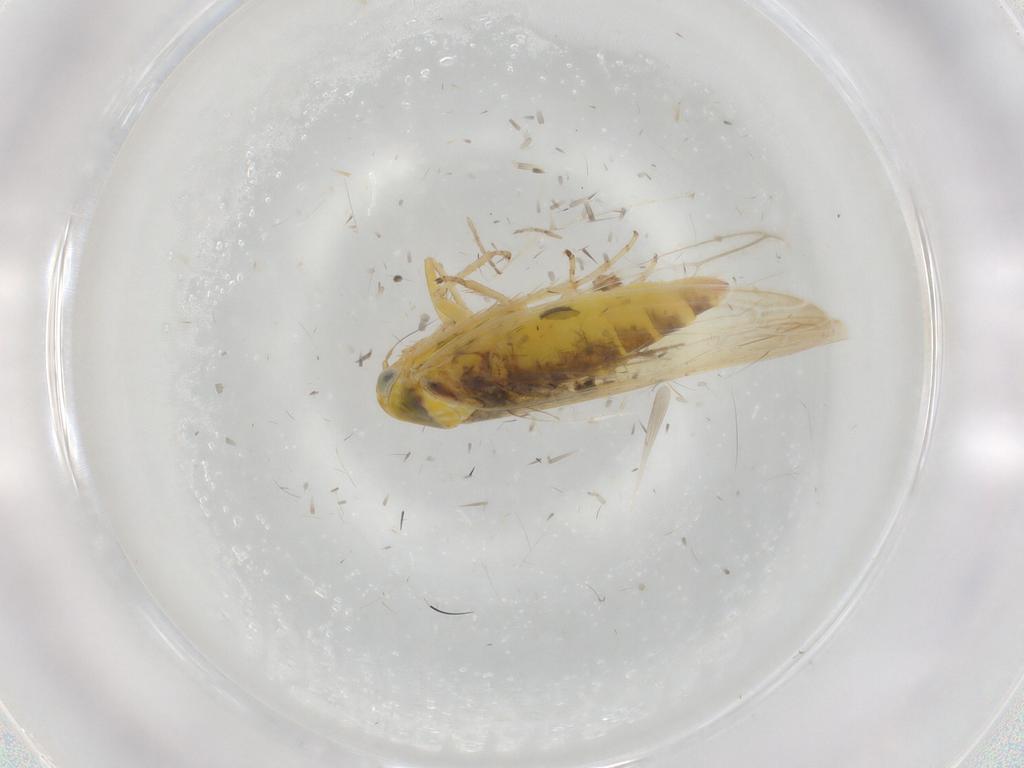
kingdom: Animalia
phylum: Arthropoda
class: Insecta
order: Hemiptera
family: Cicadellidae
